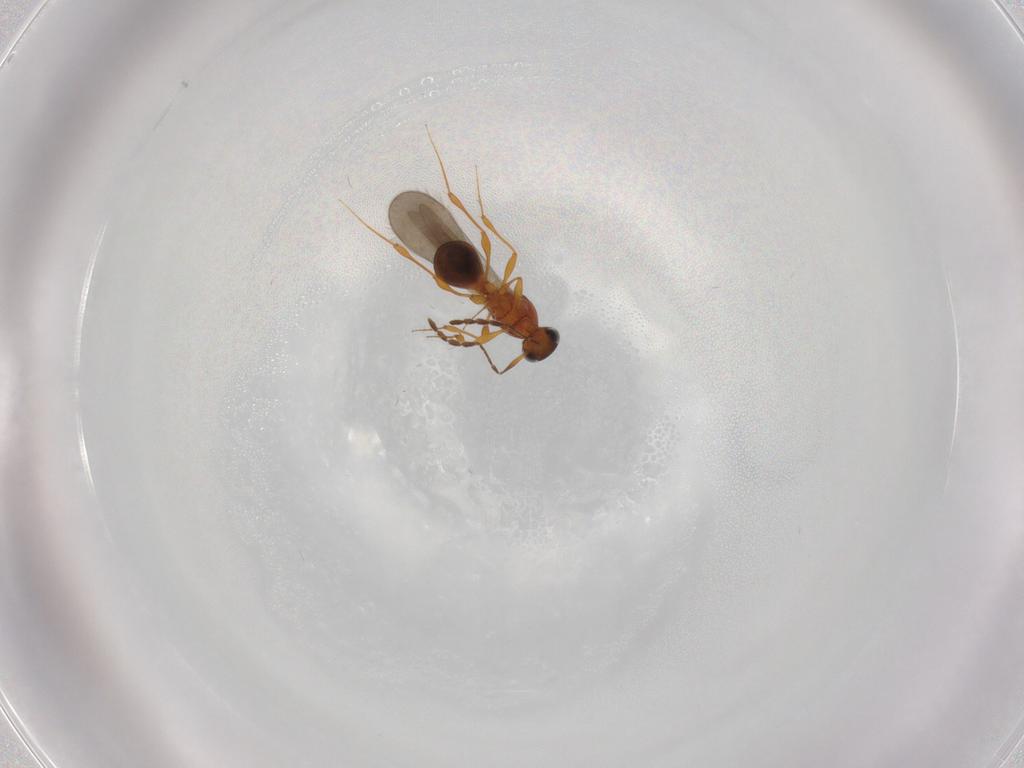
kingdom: Animalia
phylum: Arthropoda
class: Insecta
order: Hymenoptera
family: Platygastridae
